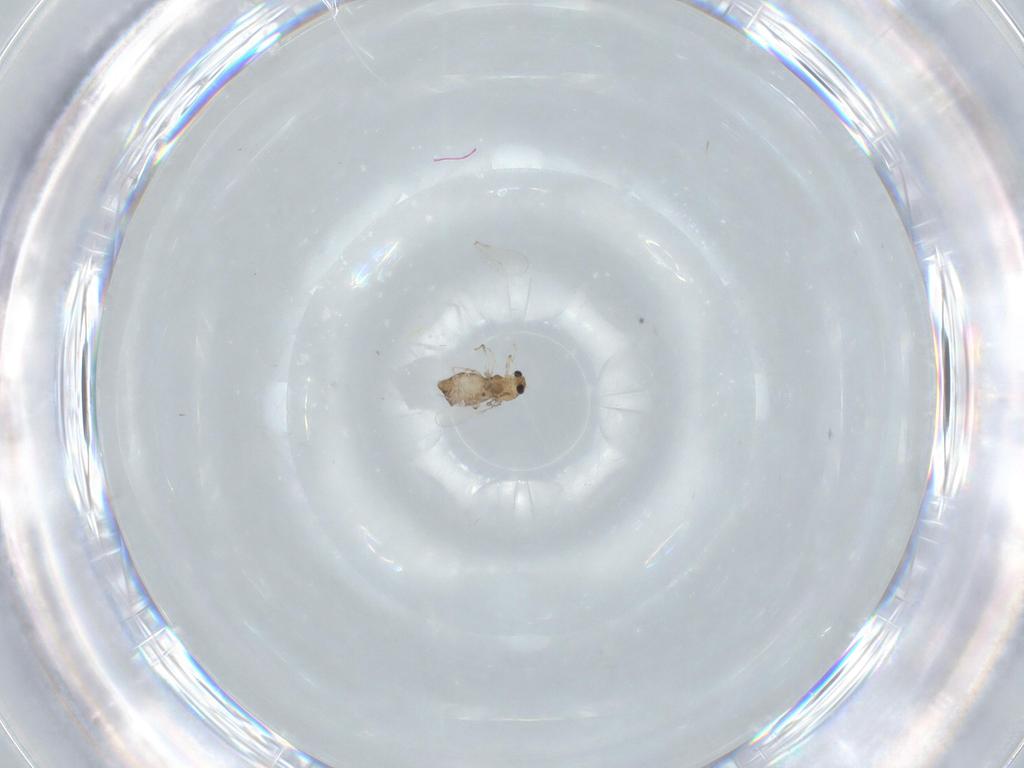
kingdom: Animalia
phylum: Arthropoda
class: Insecta
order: Diptera
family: Chironomidae
